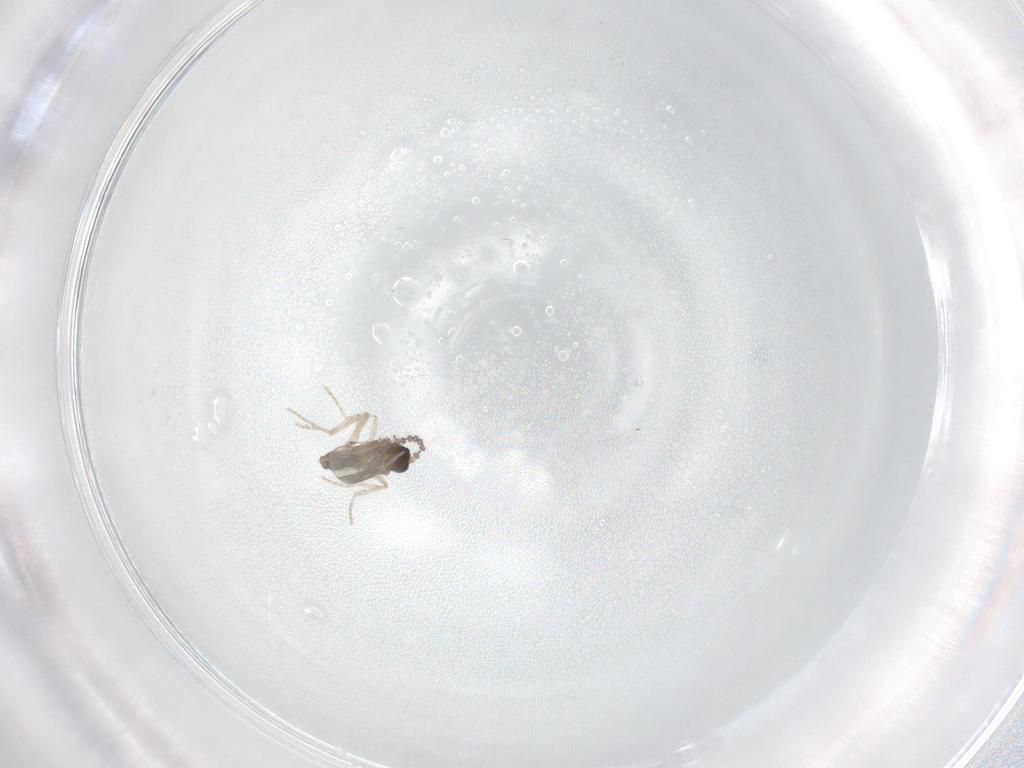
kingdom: Animalia
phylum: Arthropoda
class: Insecta
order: Diptera
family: Cecidomyiidae
